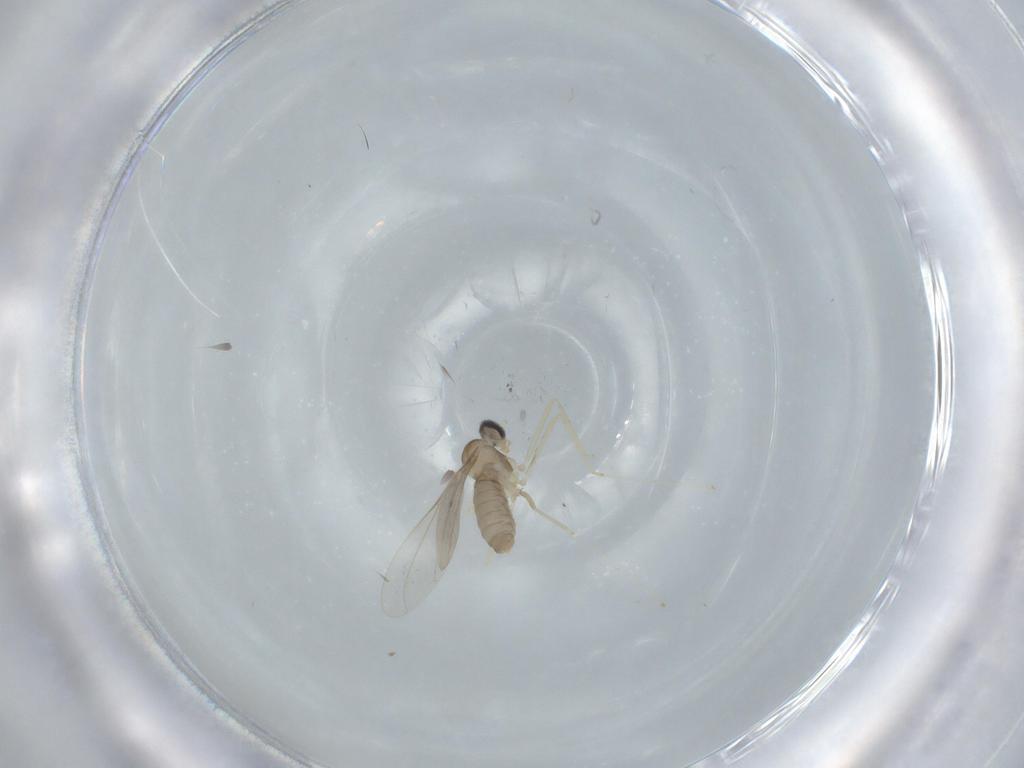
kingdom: Animalia
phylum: Arthropoda
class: Insecta
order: Diptera
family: Cecidomyiidae
